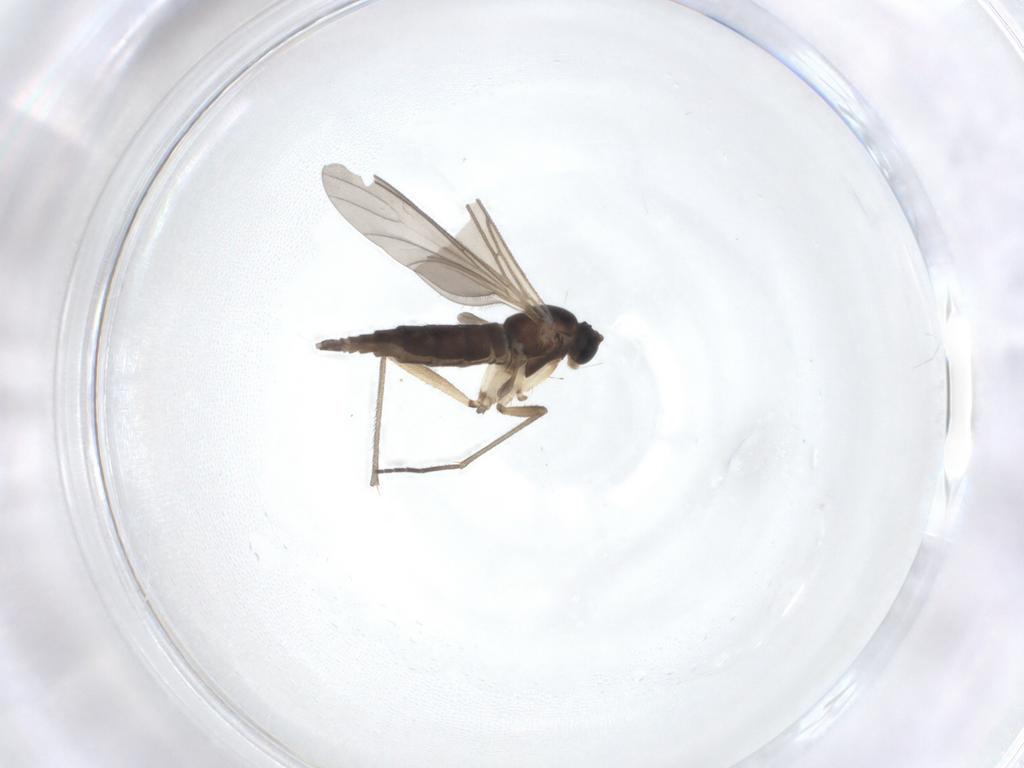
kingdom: Animalia
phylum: Arthropoda
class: Insecta
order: Diptera
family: Sciaridae
